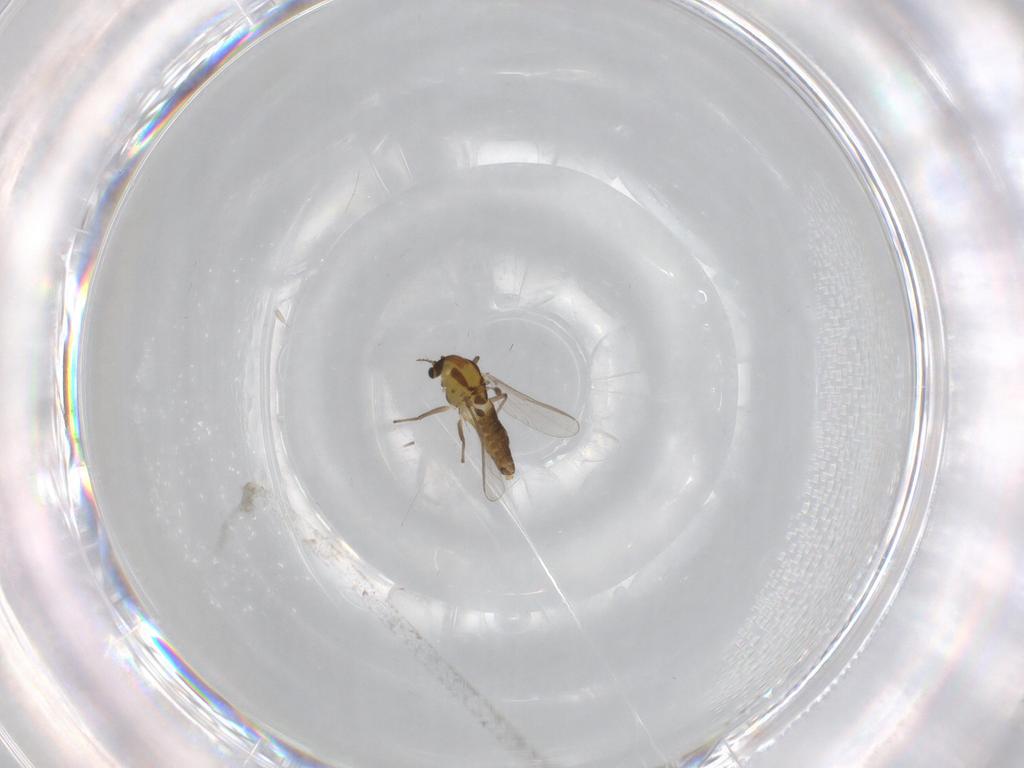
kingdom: Animalia
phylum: Arthropoda
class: Insecta
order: Diptera
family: Chironomidae
